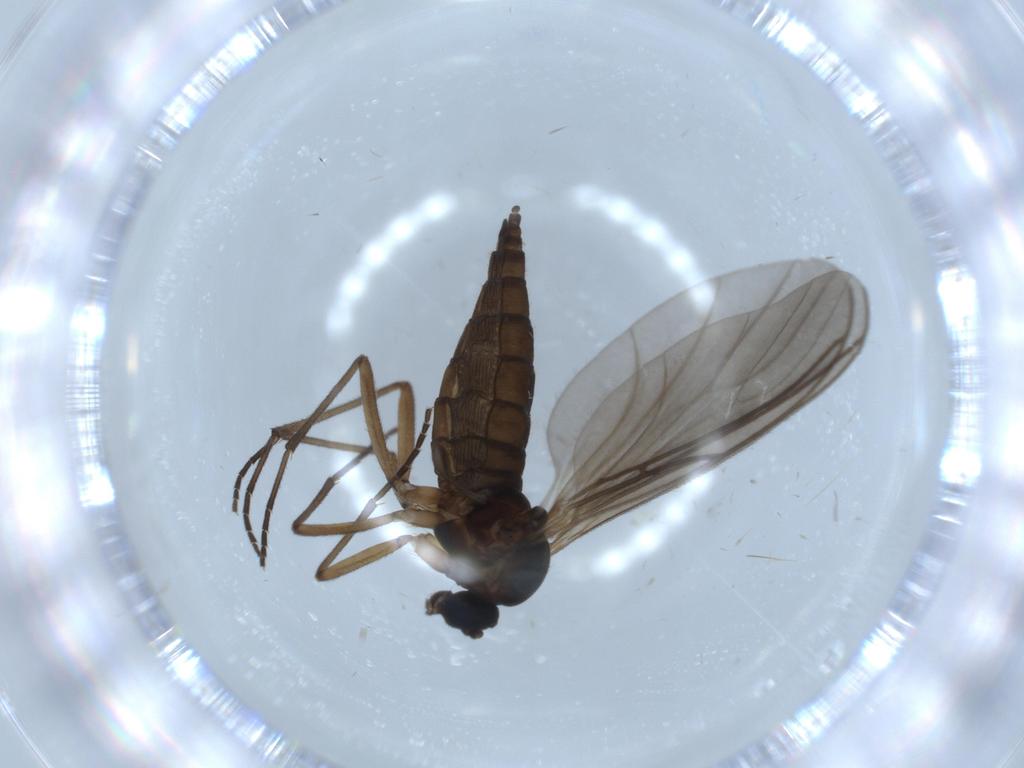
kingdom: Animalia
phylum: Arthropoda
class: Insecta
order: Diptera
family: Sciaridae
